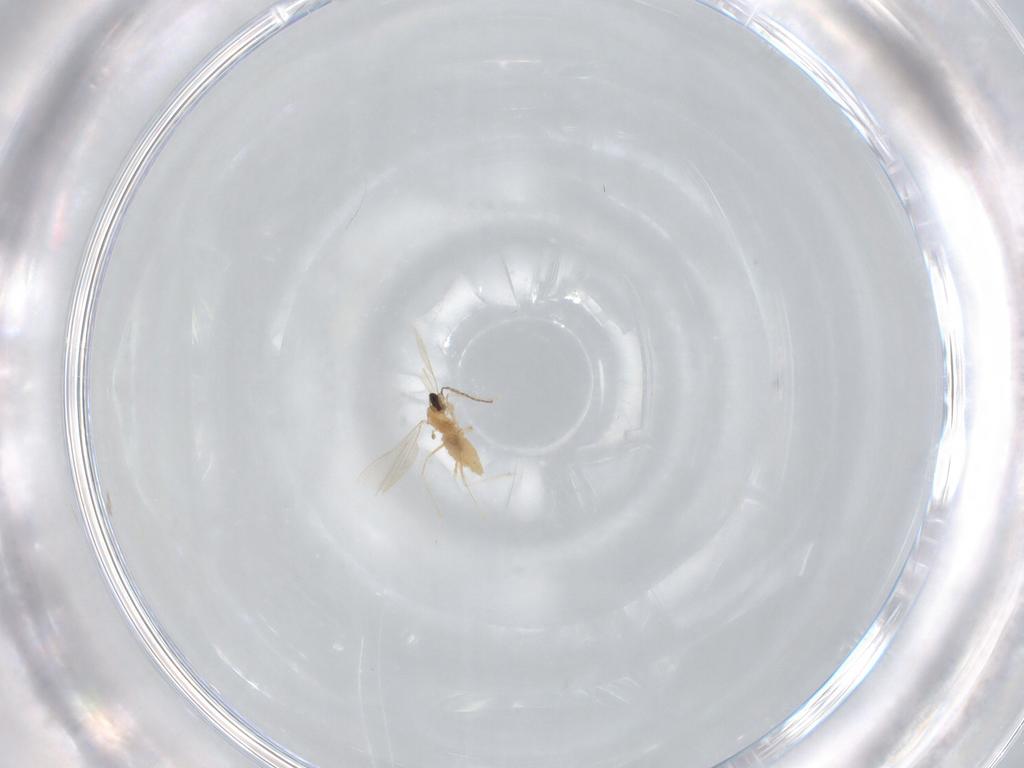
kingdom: Animalia
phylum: Arthropoda
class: Insecta
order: Diptera
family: Cecidomyiidae
